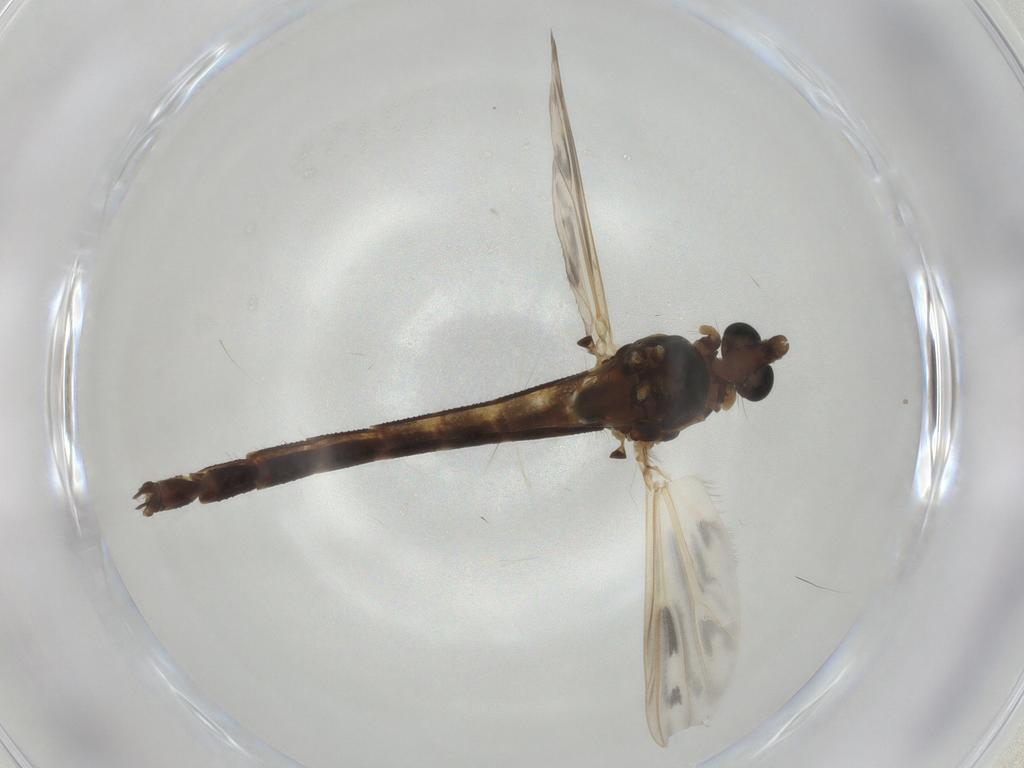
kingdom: Animalia
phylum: Arthropoda
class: Insecta
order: Diptera
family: Chironomidae
